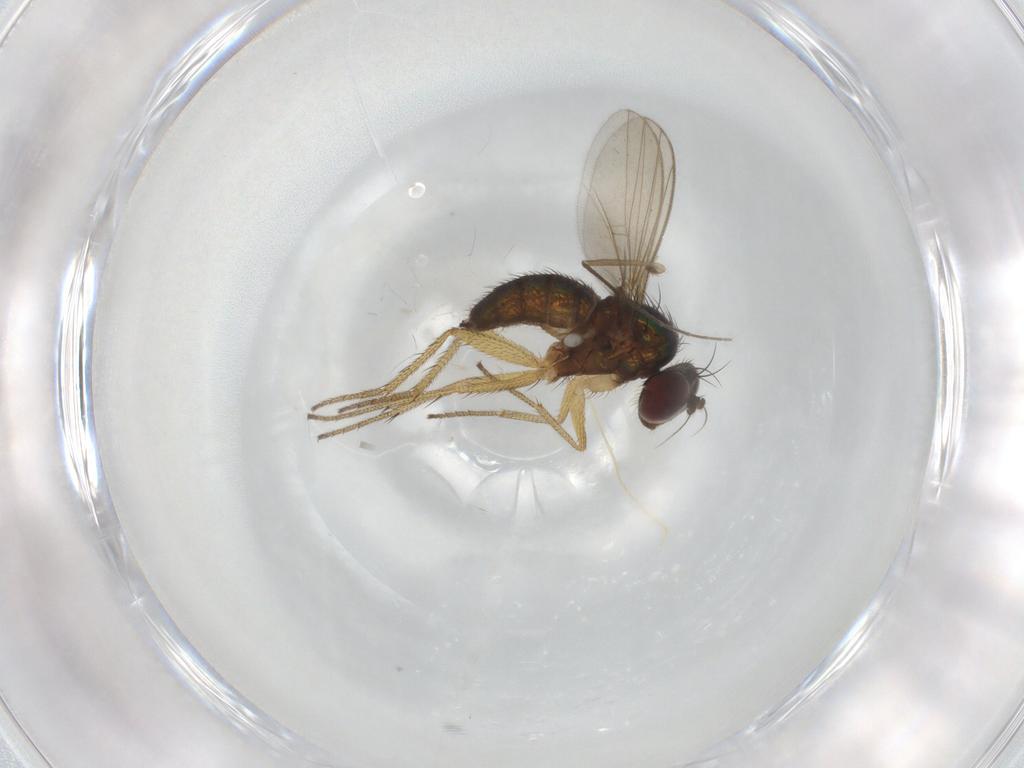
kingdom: Animalia
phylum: Arthropoda
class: Insecta
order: Diptera
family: Chironomidae
